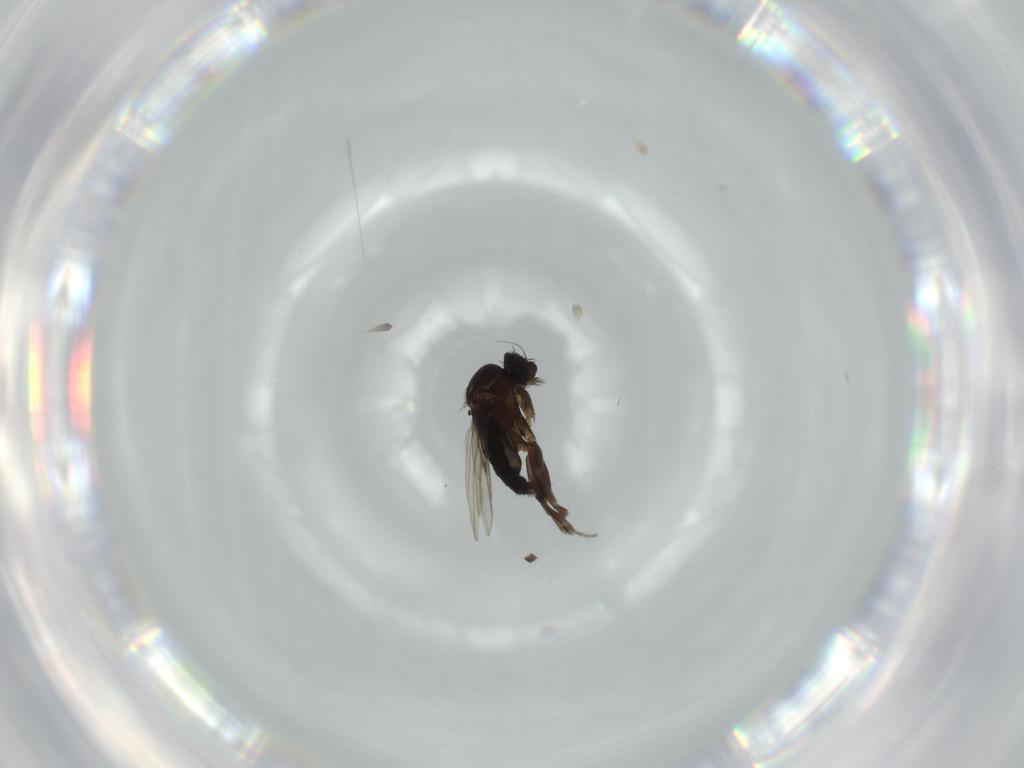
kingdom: Animalia
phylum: Arthropoda
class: Insecta
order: Diptera
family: Phoridae
